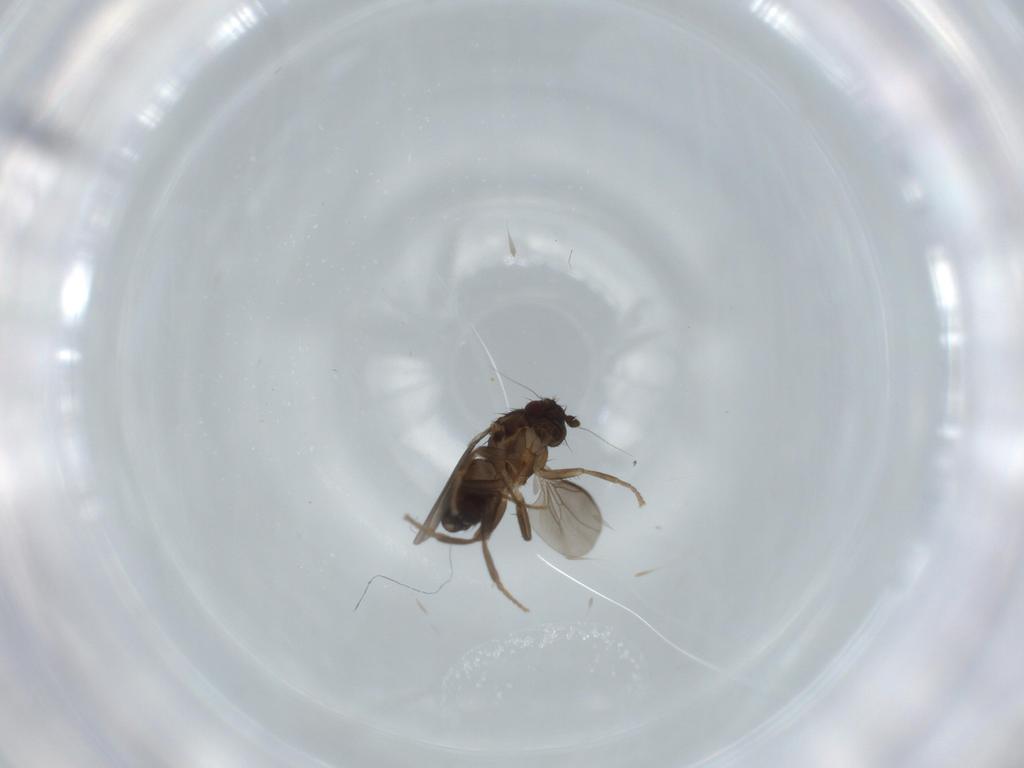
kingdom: Animalia
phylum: Arthropoda
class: Insecta
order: Diptera
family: Sphaeroceridae
